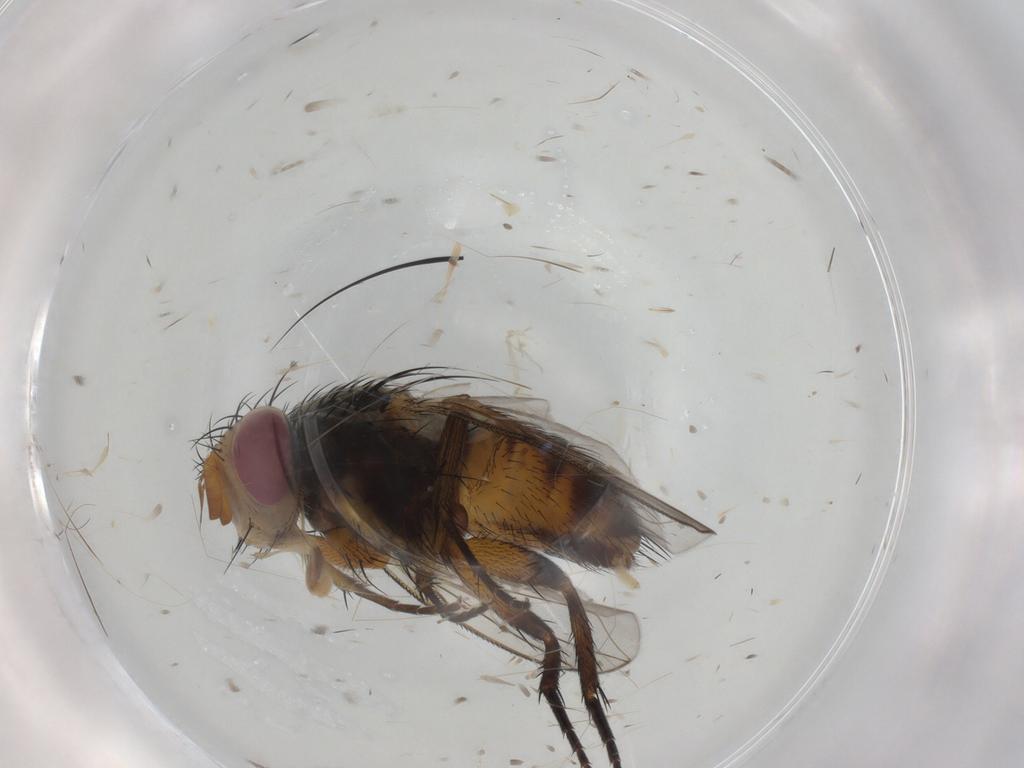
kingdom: Animalia
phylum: Arthropoda
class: Insecta
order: Diptera
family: Chironomidae
